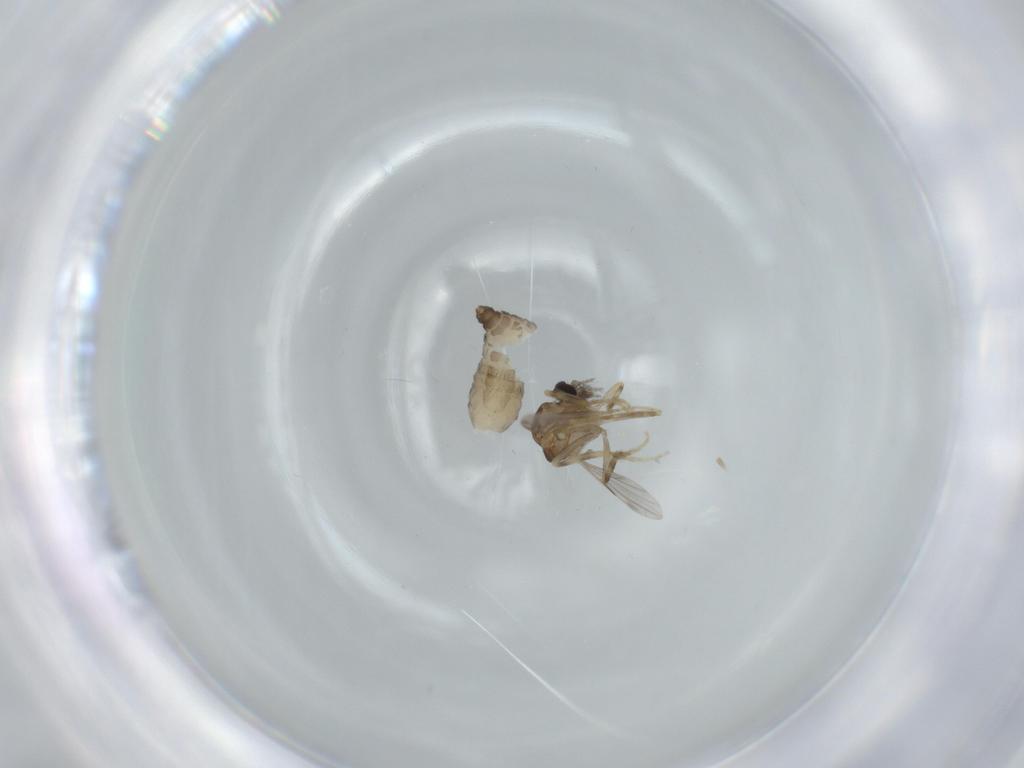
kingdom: Animalia
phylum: Arthropoda
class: Insecta
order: Diptera
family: Ceratopogonidae
